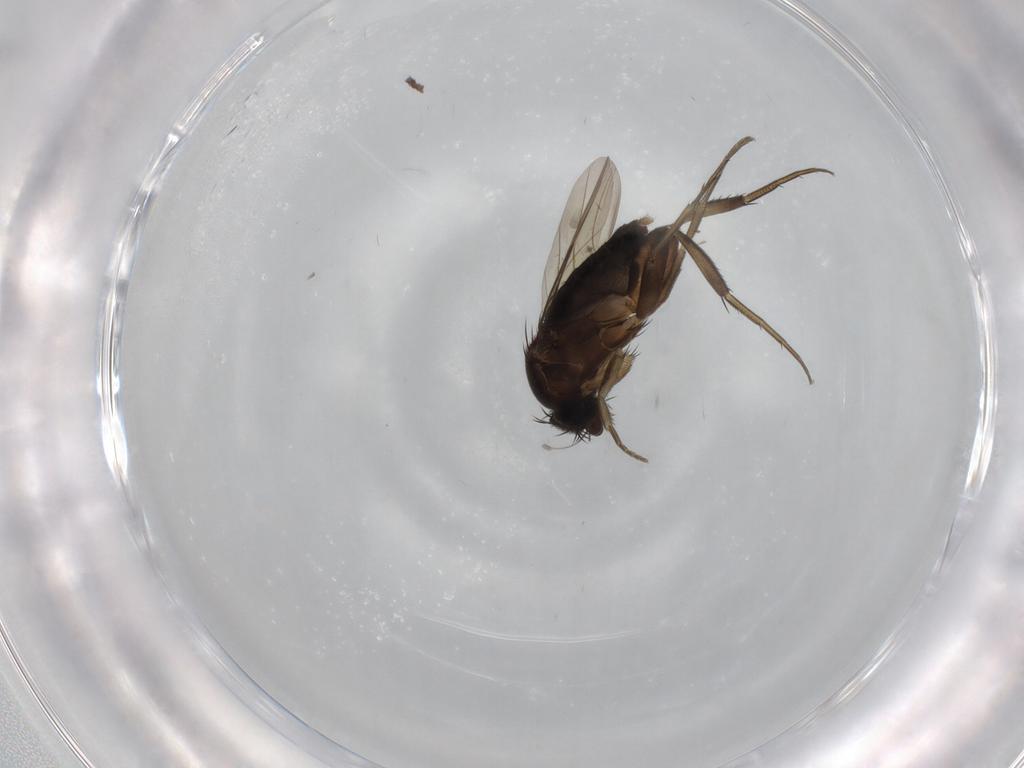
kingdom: Animalia
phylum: Arthropoda
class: Insecta
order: Diptera
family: Phoridae
